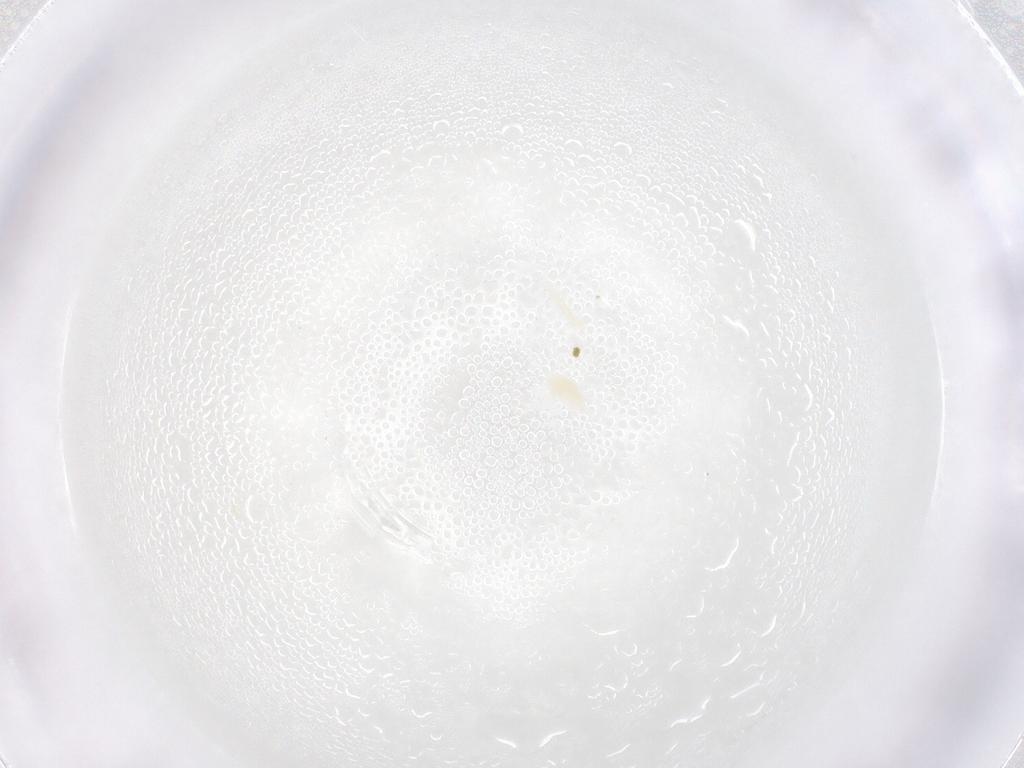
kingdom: Animalia
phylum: Arthropoda
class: Arachnida
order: Trombidiformes
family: Eupodidae
